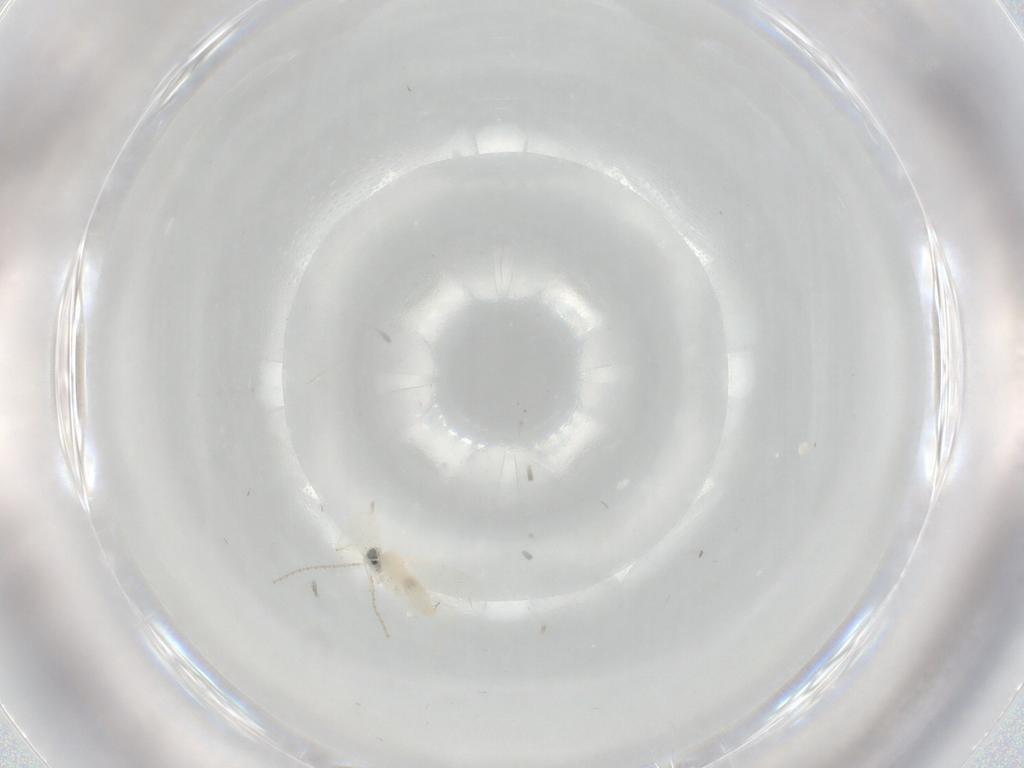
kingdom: Animalia
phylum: Arthropoda
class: Insecta
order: Diptera
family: Cecidomyiidae
